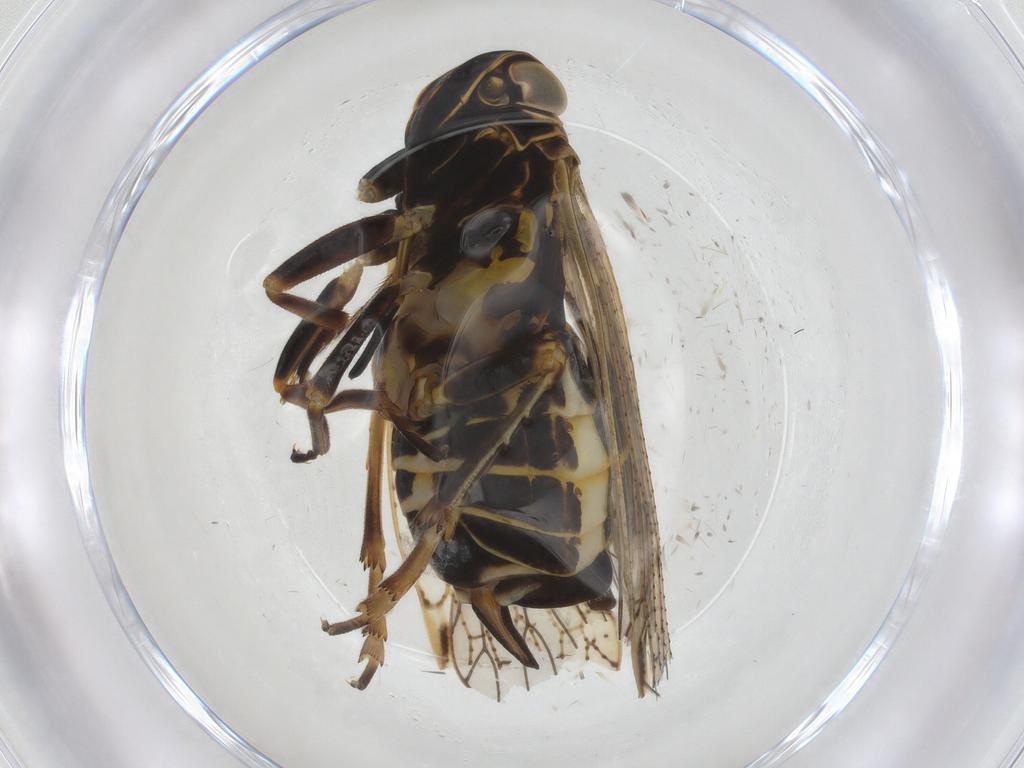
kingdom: Animalia
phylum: Arthropoda
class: Insecta
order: Hemiptera
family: Cixiidae
